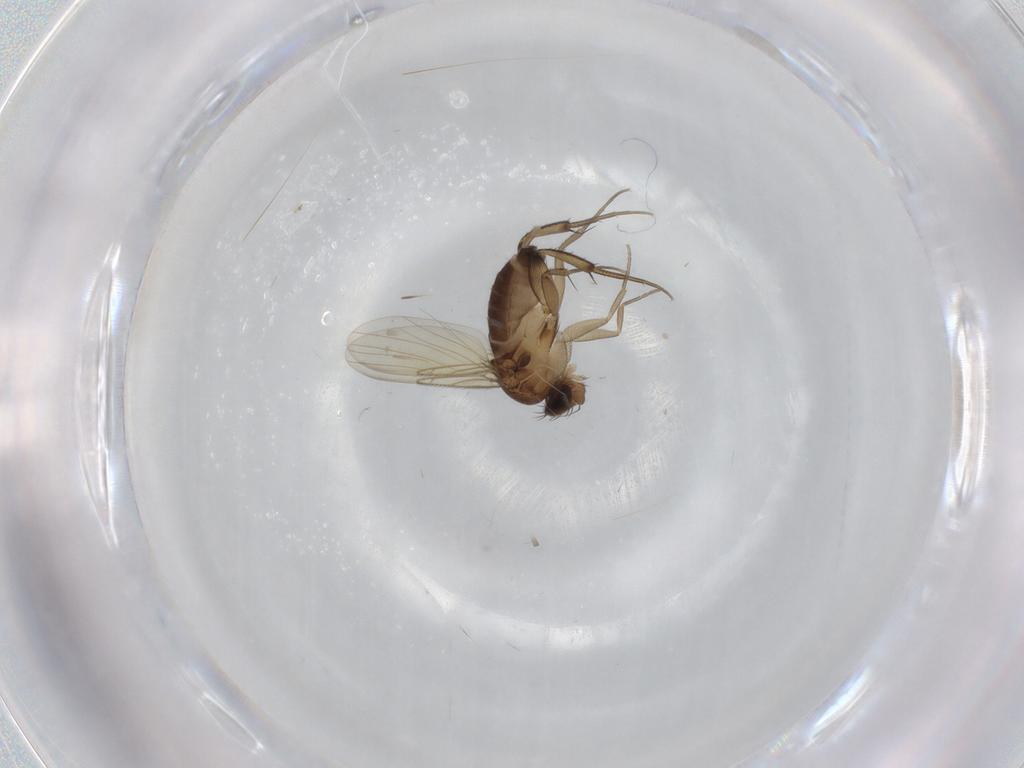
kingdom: Animalia
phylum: Arthropoda
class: Insecta
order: Diptera
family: Phoridae
